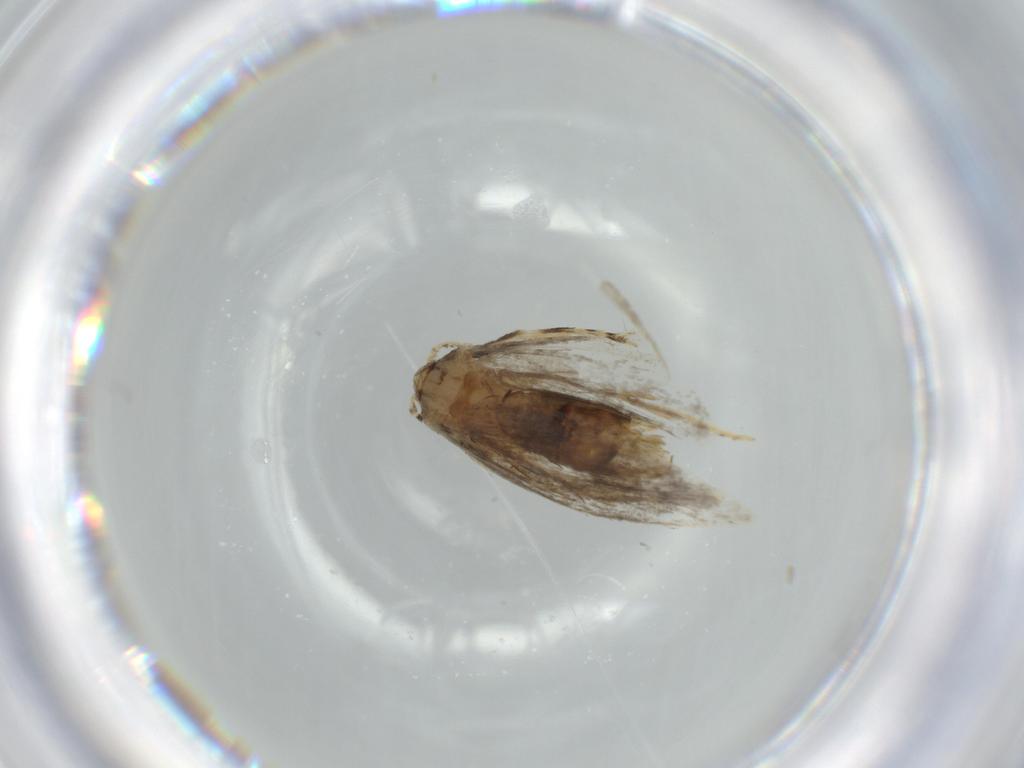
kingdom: Animalia
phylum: Arthropoda
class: Insecta
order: Lepidoptera
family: Tineidae
